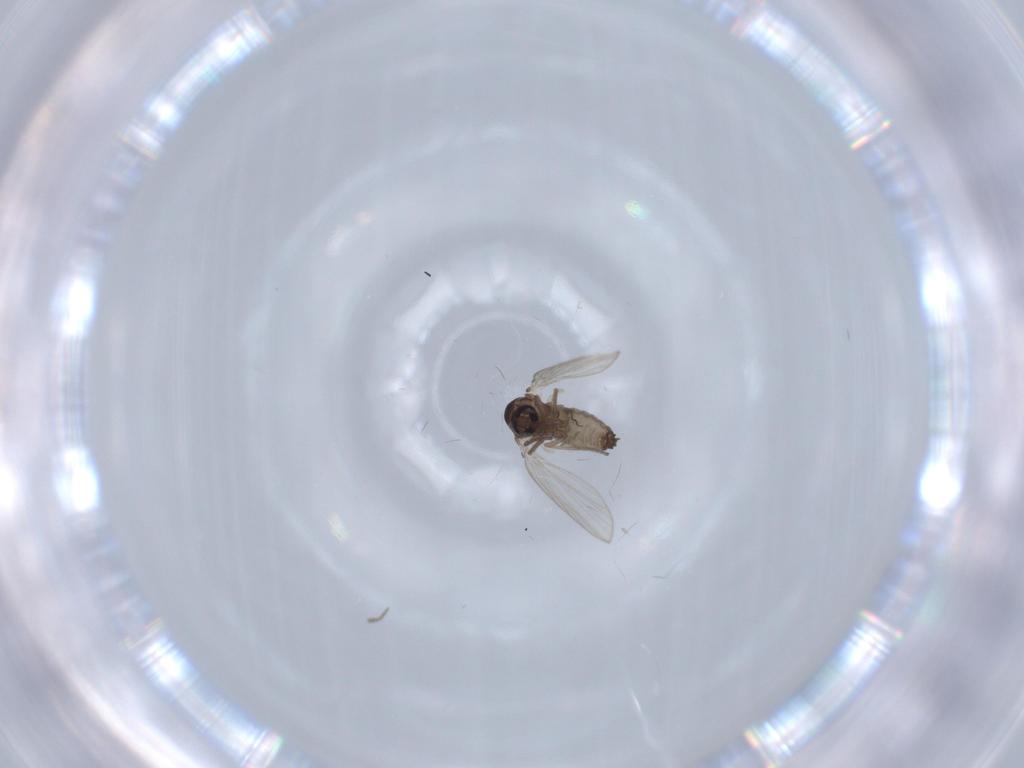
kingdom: Animalia
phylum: Arthropoda
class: Insecta
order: Diptera
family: Psychodidae
